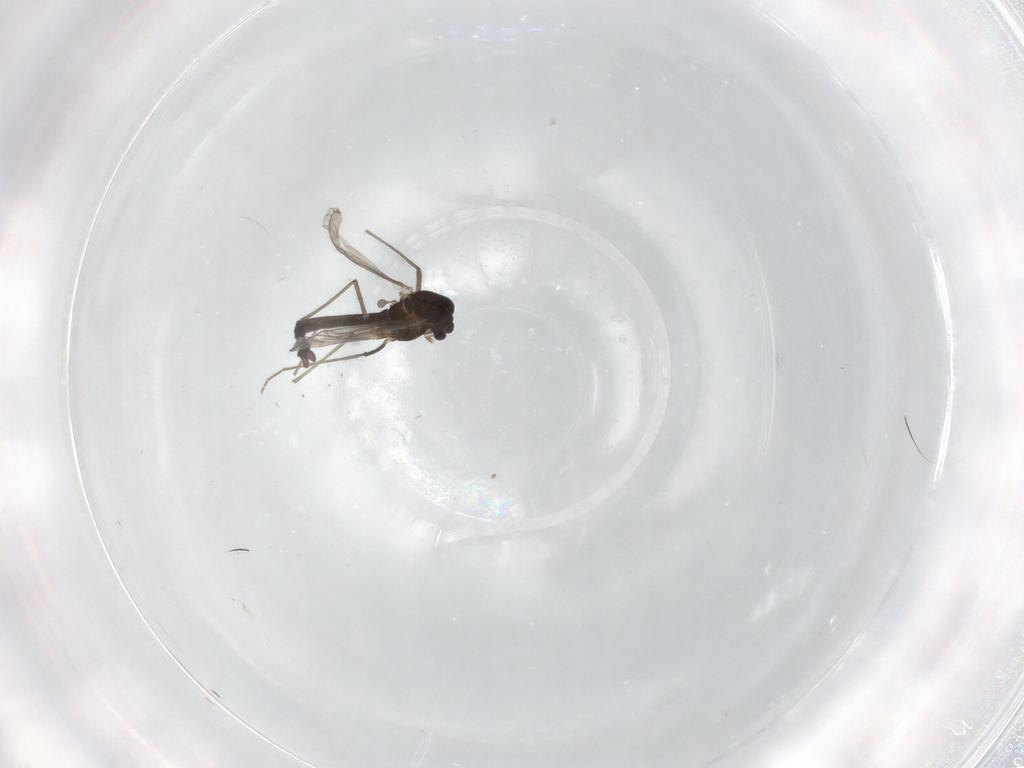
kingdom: Animalia
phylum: Arthropoda
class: Insecta
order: Diptera
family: Phoridae
